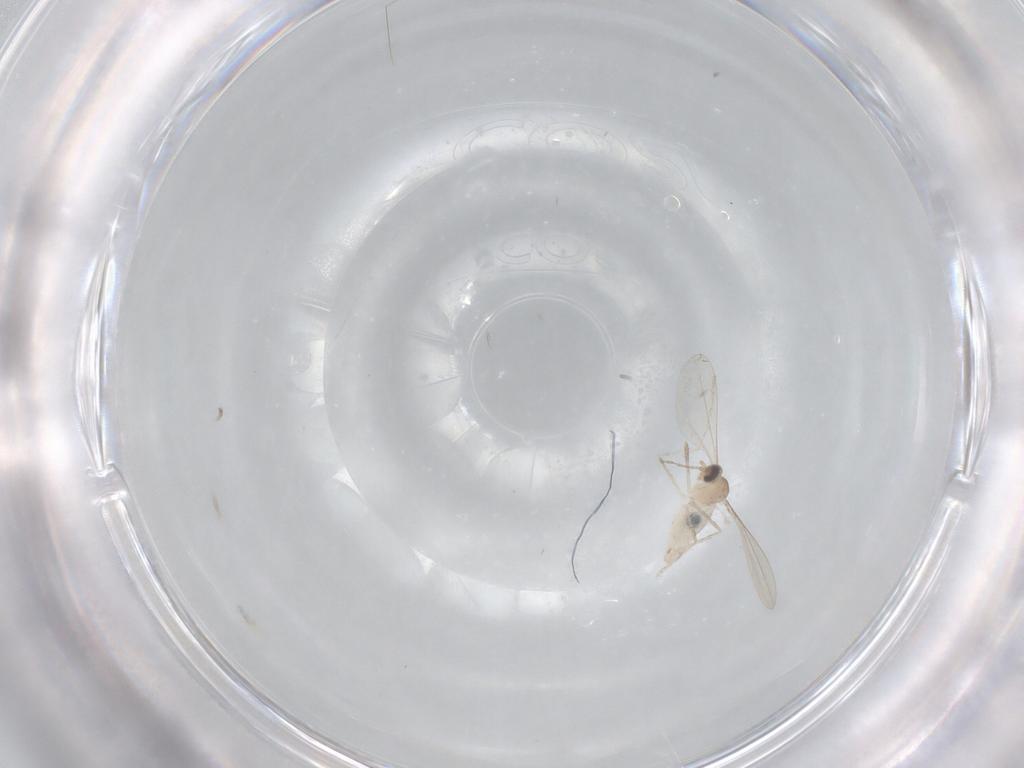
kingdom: Animalia
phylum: Arthropoda
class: Insecta
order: Diptera
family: Cecidomyiidae
